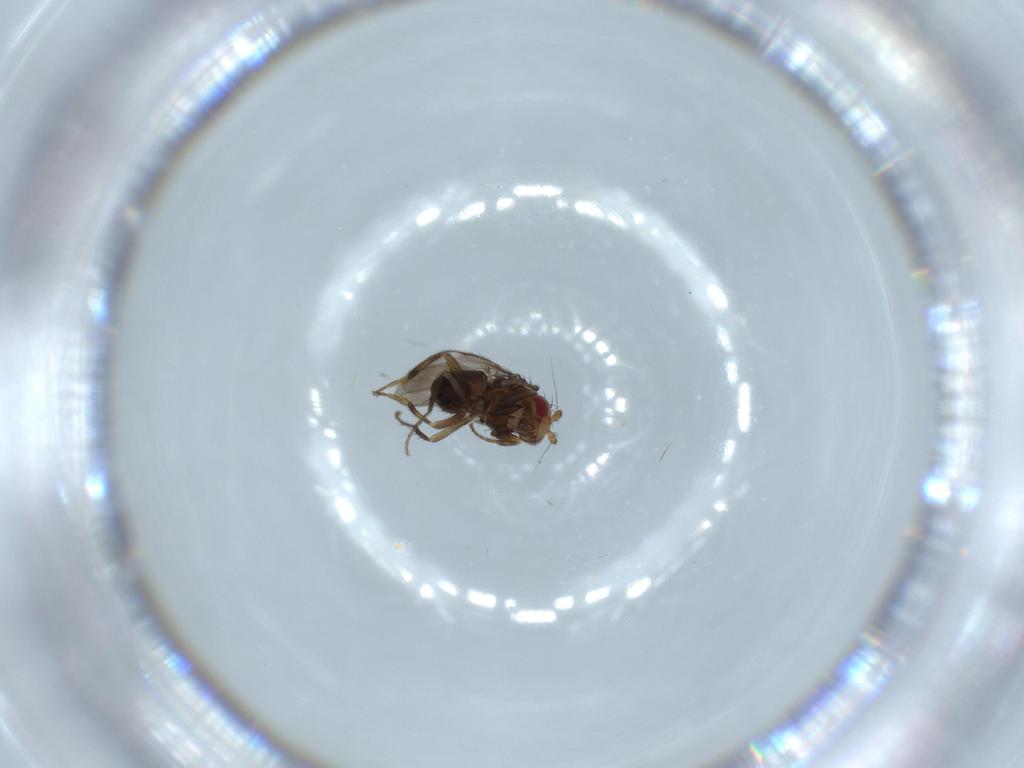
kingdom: Animalia
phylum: Arthropoda
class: Insecta
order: Diptera
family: Sphaeroceridae
